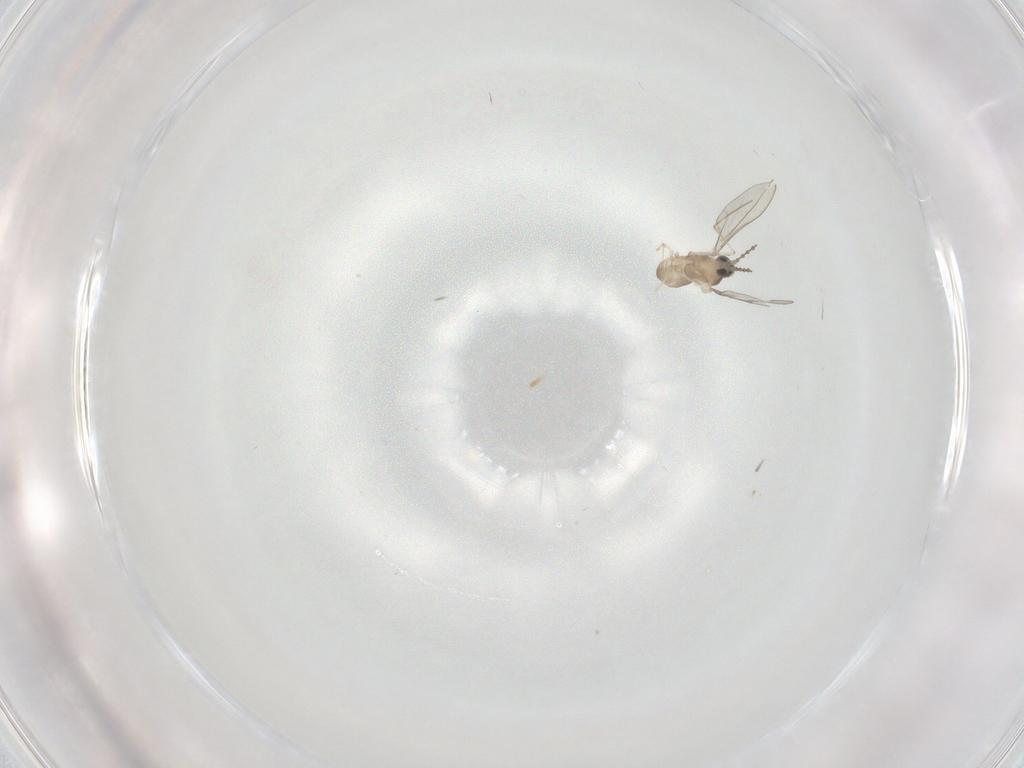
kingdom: Animalia
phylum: Arthropoda
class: Insecta
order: Diptera
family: Cecidomyiidae
